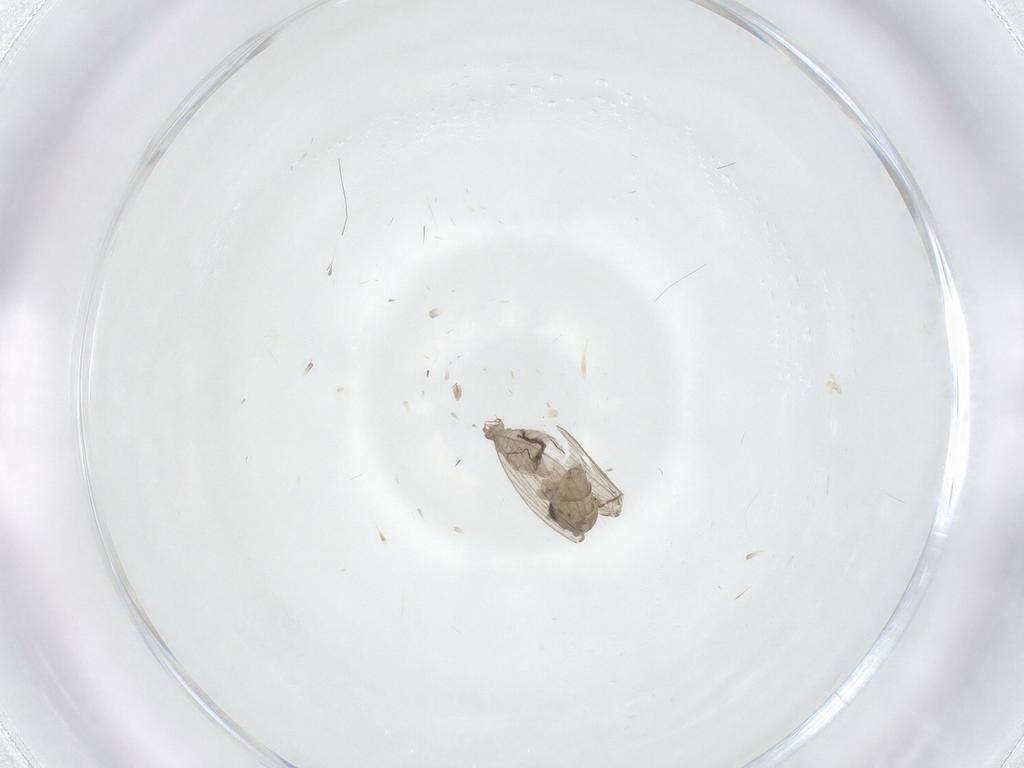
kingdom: Animalia
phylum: Arthropoda
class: Insecta
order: Diptera
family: Psychodidae
